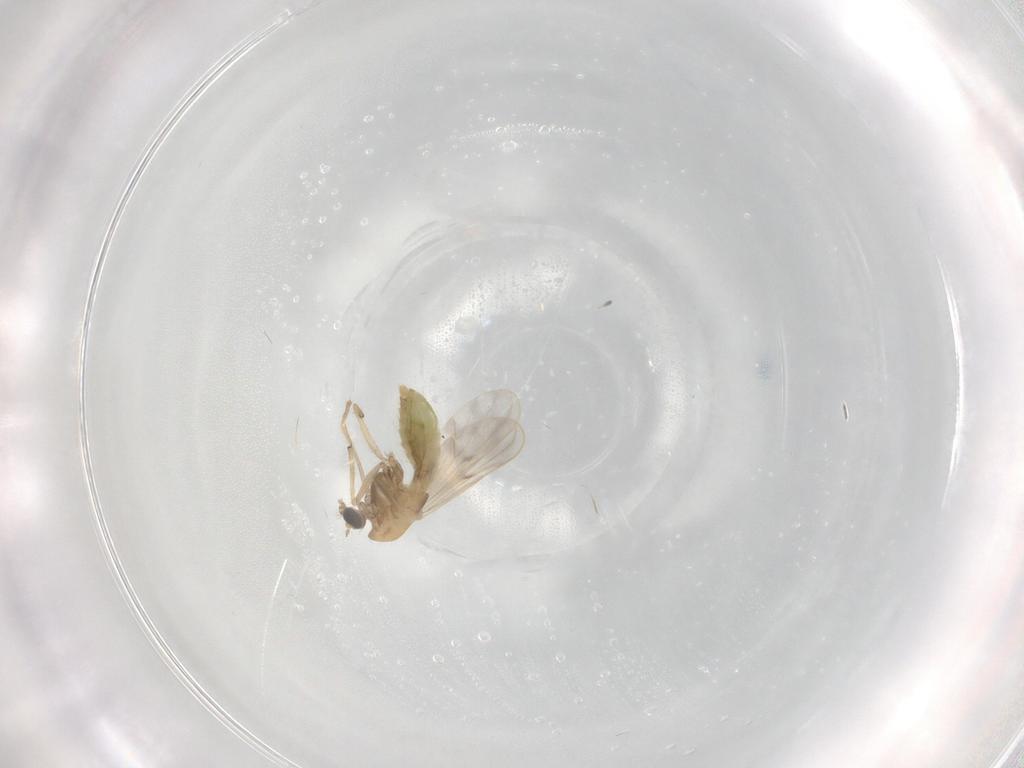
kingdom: Animalia
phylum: Arthropoda
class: Insecta
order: Diptera
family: Chironomidae
